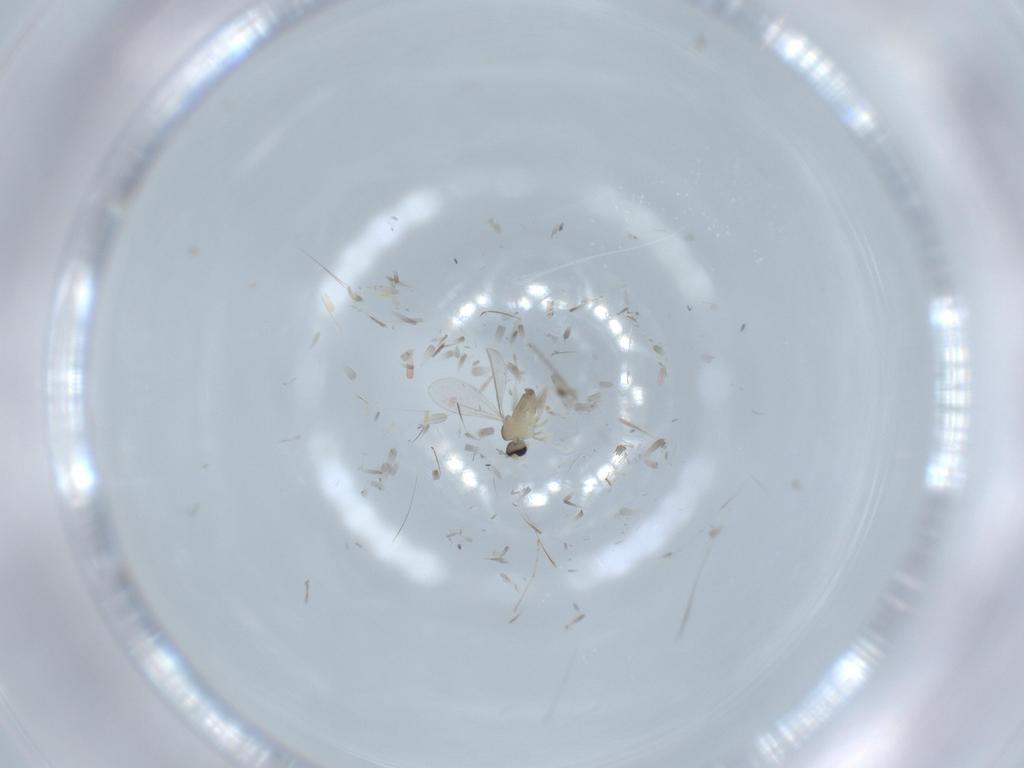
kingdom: Animalia
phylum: Arthropoda
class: Insecta
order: Diptera
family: Cecidomyiidae
